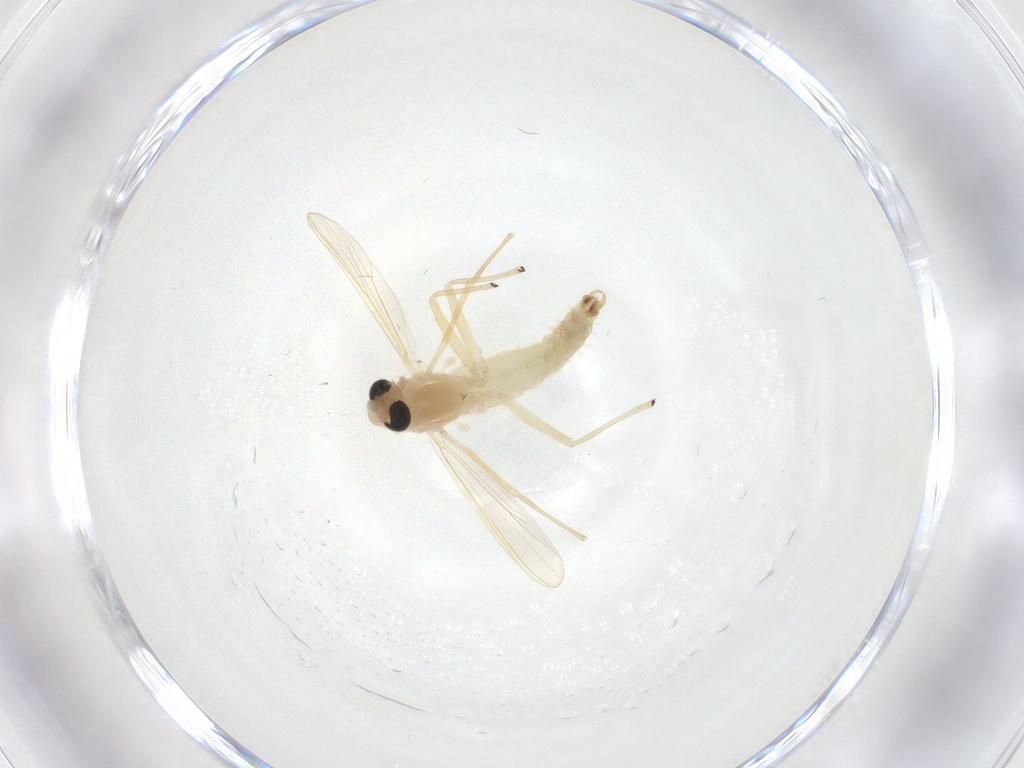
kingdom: Animalia
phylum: Arthropoda
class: Insecta
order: Diptera
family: Chironomidae
